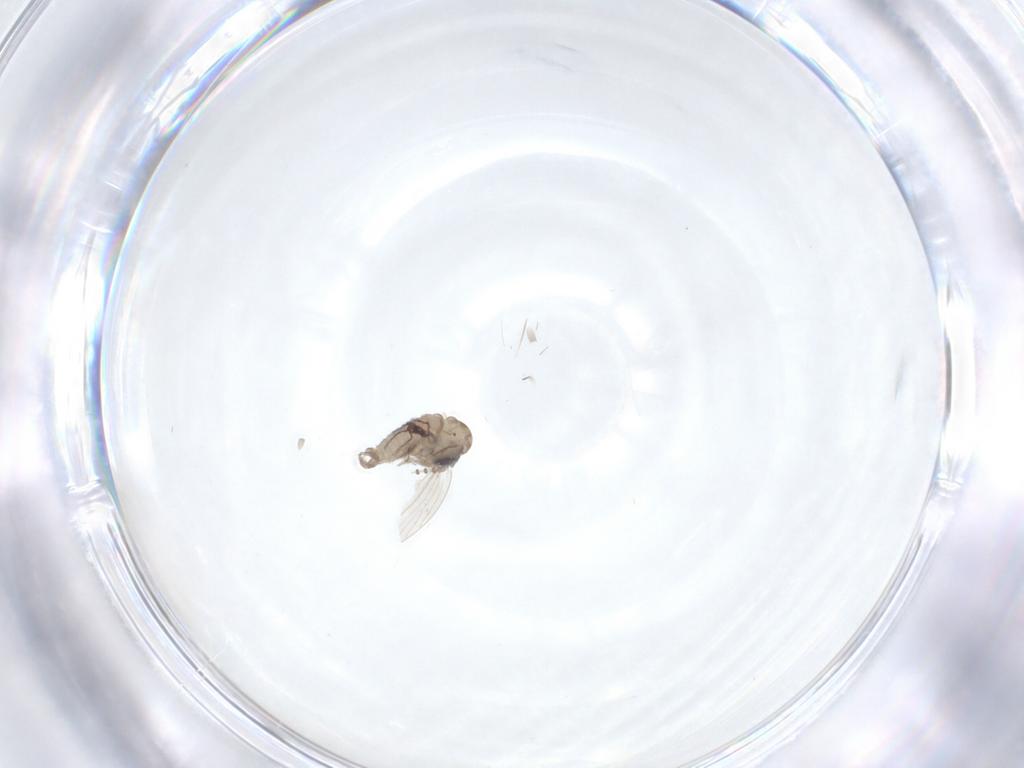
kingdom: Animalia
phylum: Arthropoda
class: Insecta
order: Diptera
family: Psychodidae
